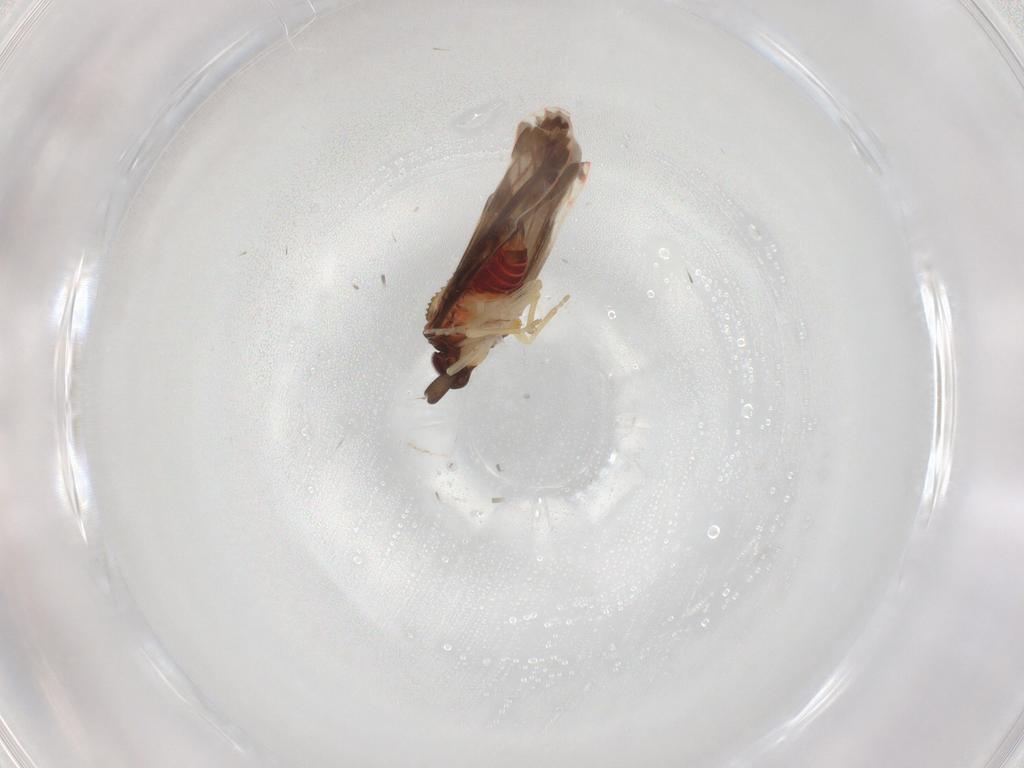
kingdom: Animalia
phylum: Arthropoda
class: Insecta
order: Hemiptera
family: Derbidae
